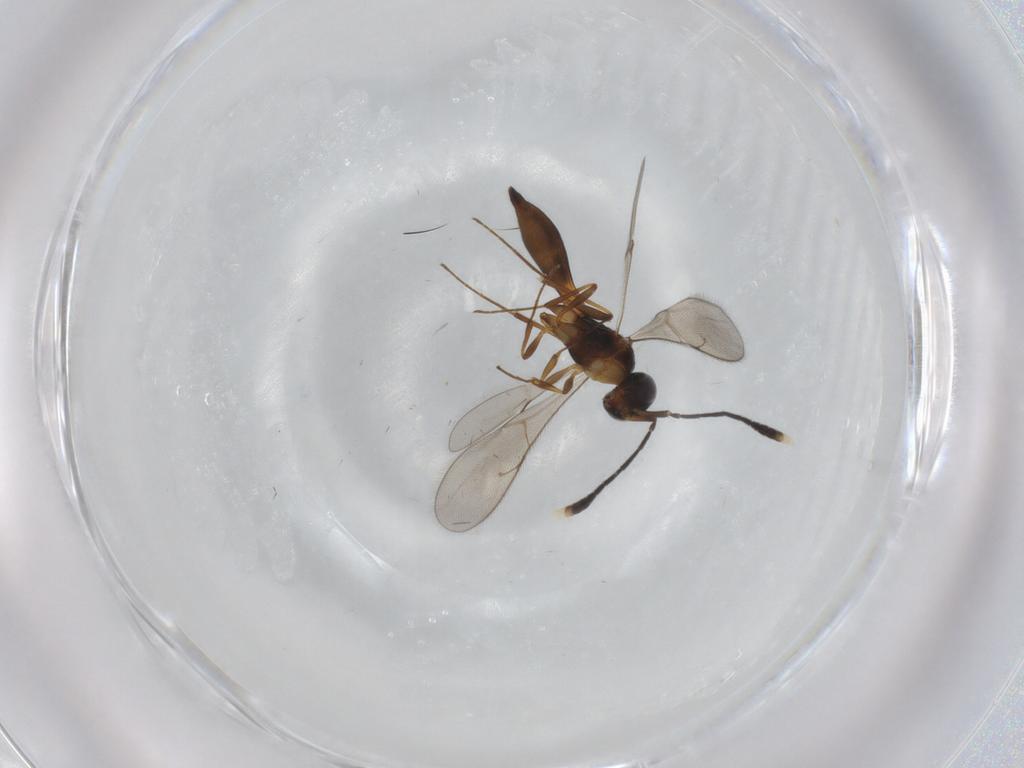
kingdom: Animalia
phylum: Arthropoda
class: Insecta
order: Hymenoptera
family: Scelionidae
